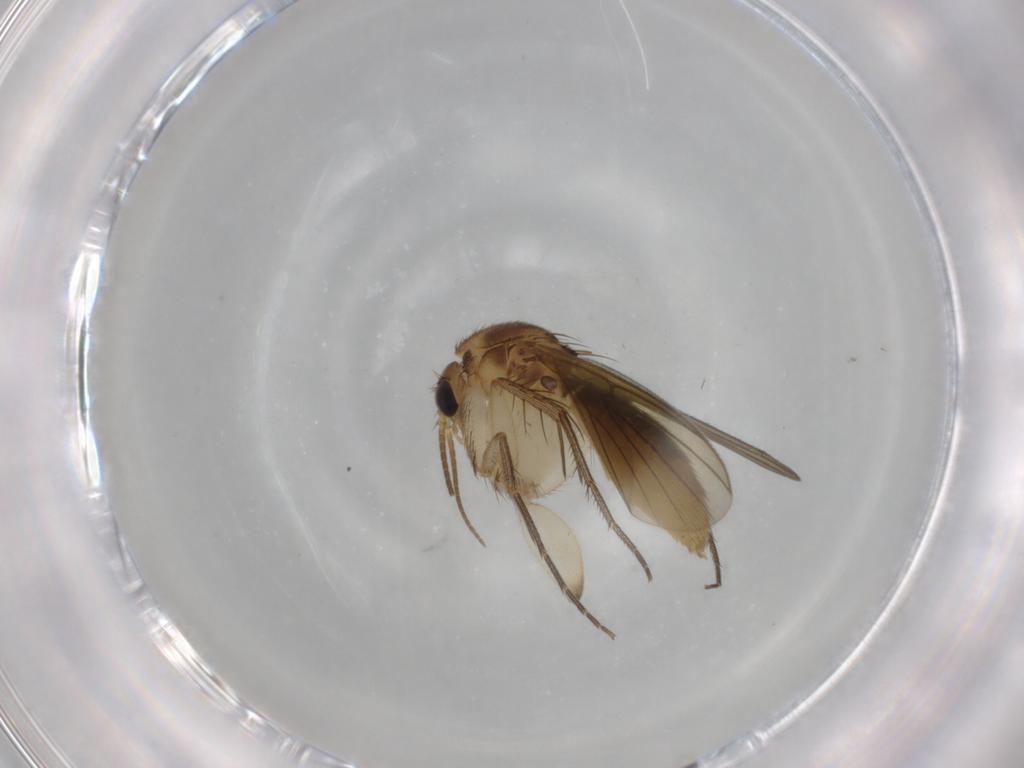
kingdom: Animalia
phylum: Arthropoda
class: Insecta
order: Diptera
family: Mycetophilidae
